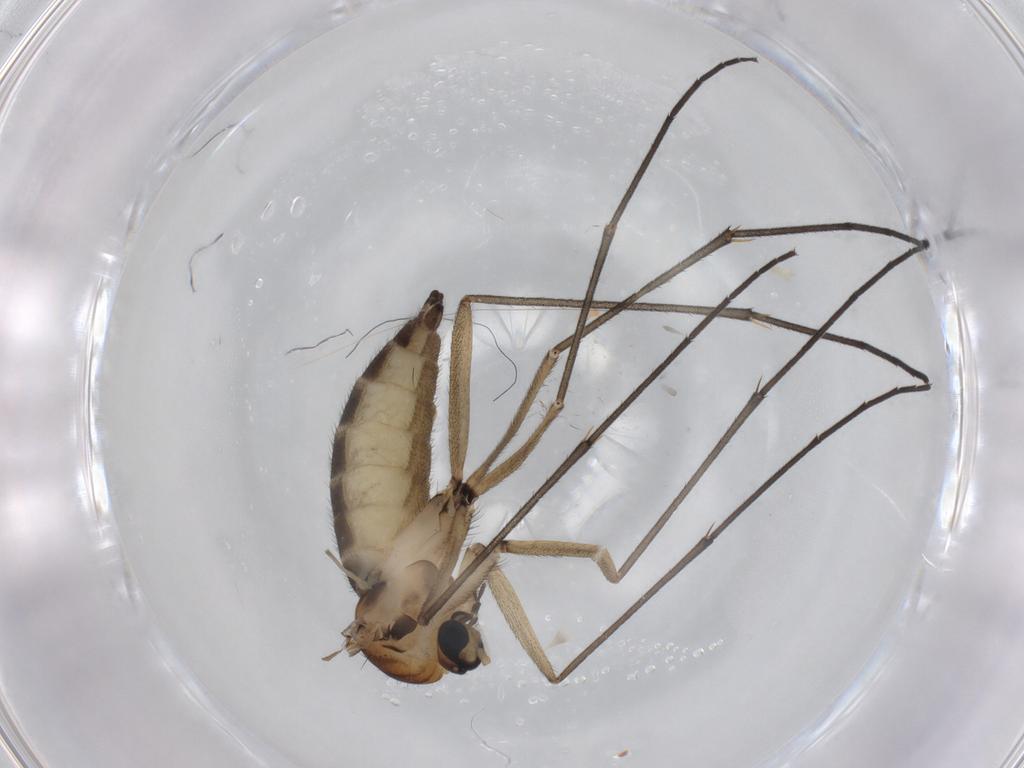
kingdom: Animalia
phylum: Arthropoda
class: Insecta
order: Diptera
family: Sciaridae
